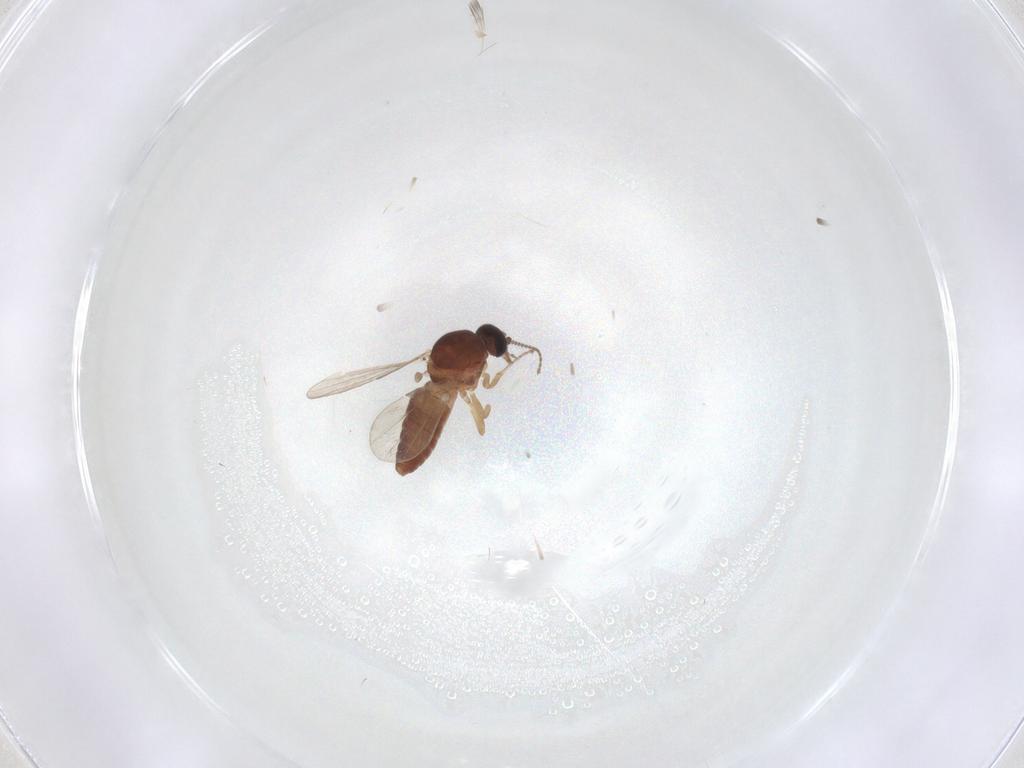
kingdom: Animalia
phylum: Arthropoda
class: Insecta
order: Diptera
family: Ceratopogonidae
